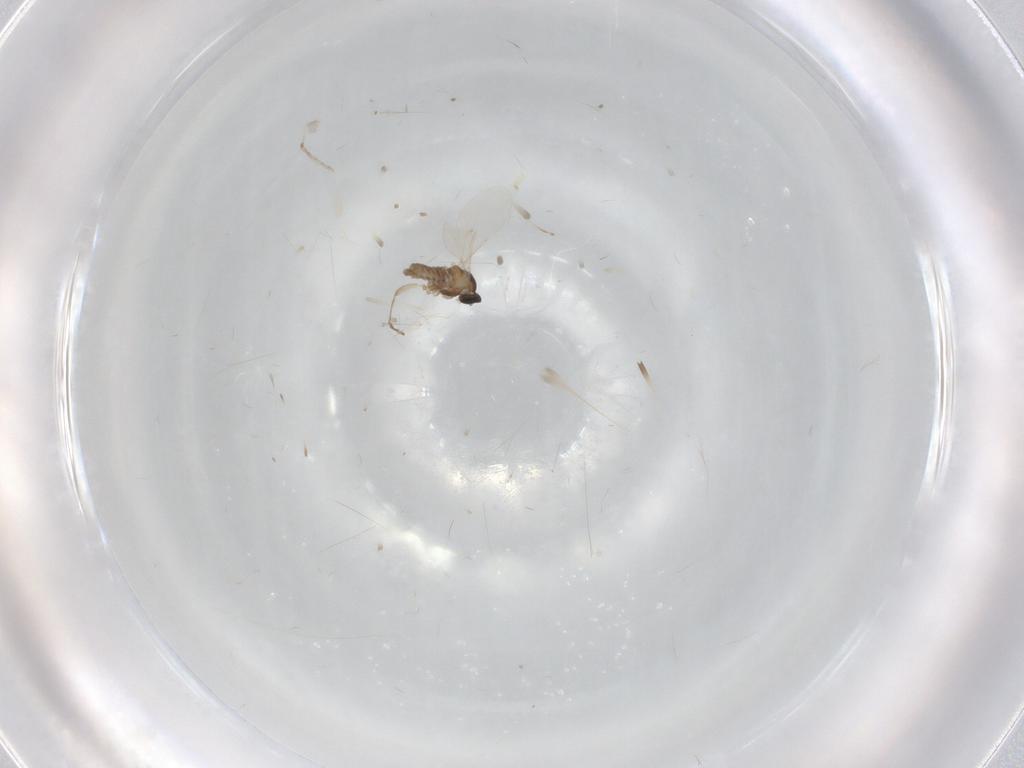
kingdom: Animalia
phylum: Arthropoda
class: Insecta
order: Diptera
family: Cecidomyiidae
